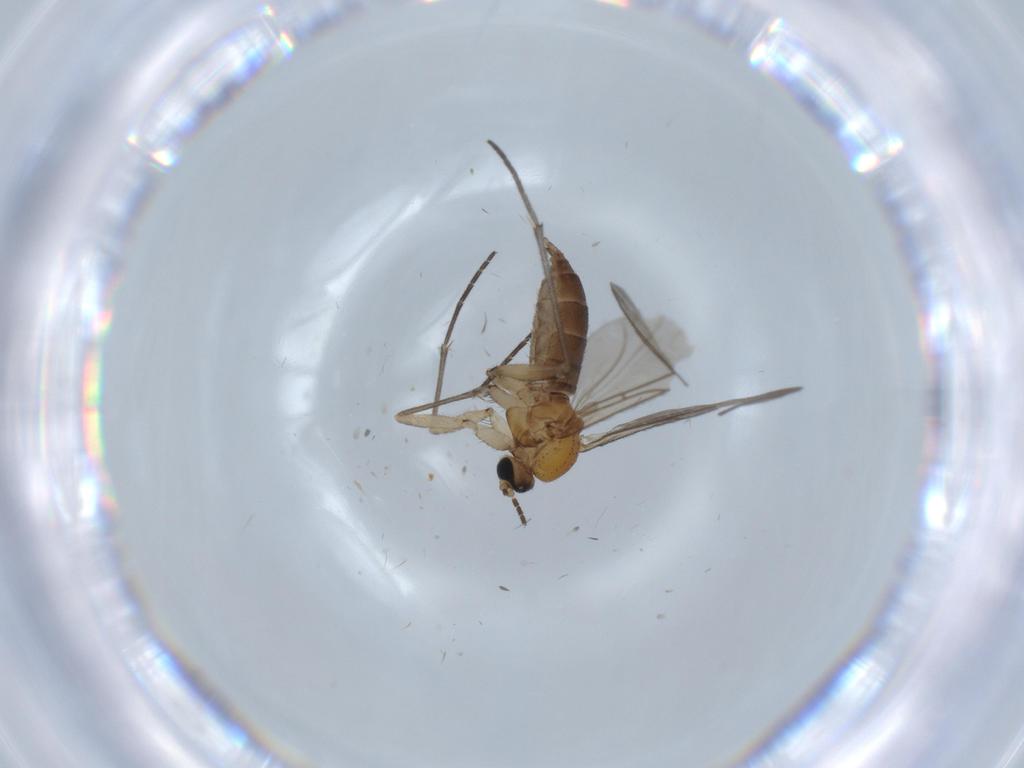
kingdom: Animalia
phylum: Arthropoda
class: Insecta
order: Diptera
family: Sciaridae
